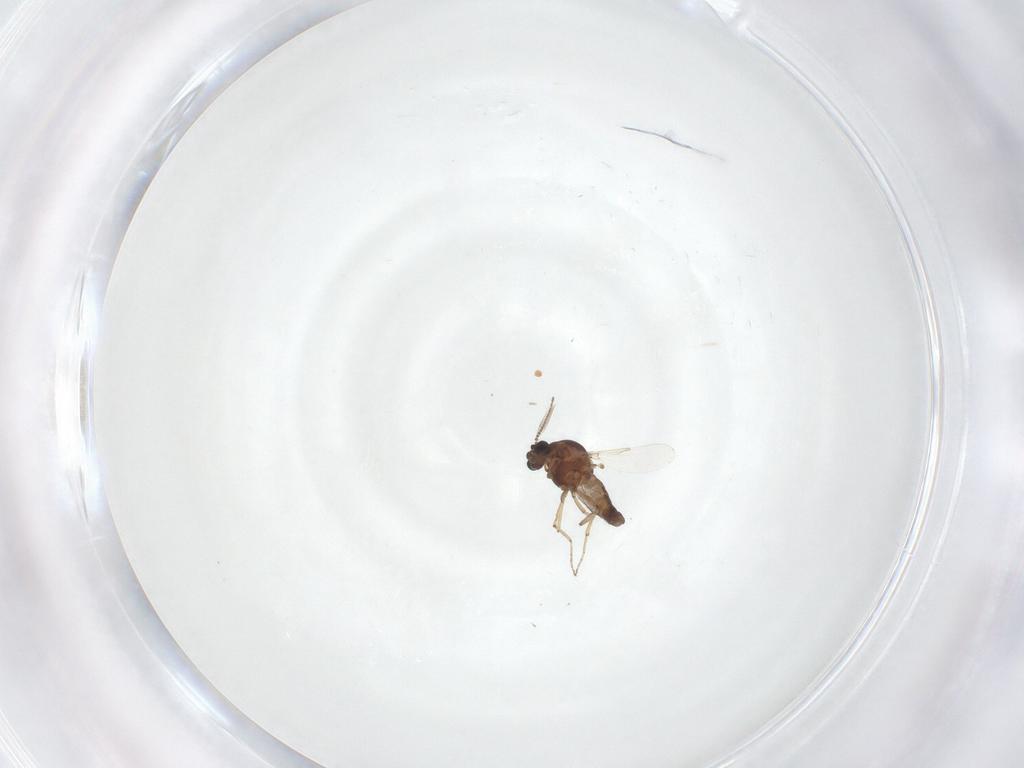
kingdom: Animalia
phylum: Arthropoda
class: Insecta
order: Diptera
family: Ceratopogonidae
